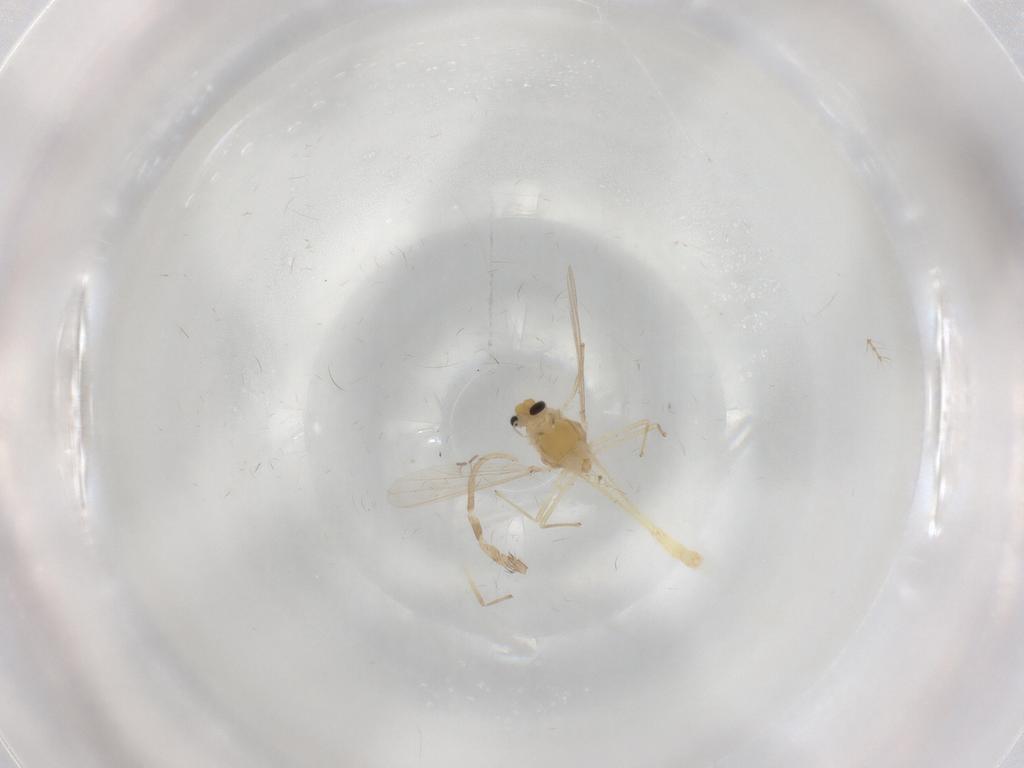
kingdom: Animalia
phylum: Arthropoda
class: Insecta
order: Diptera
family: Chironomidae
